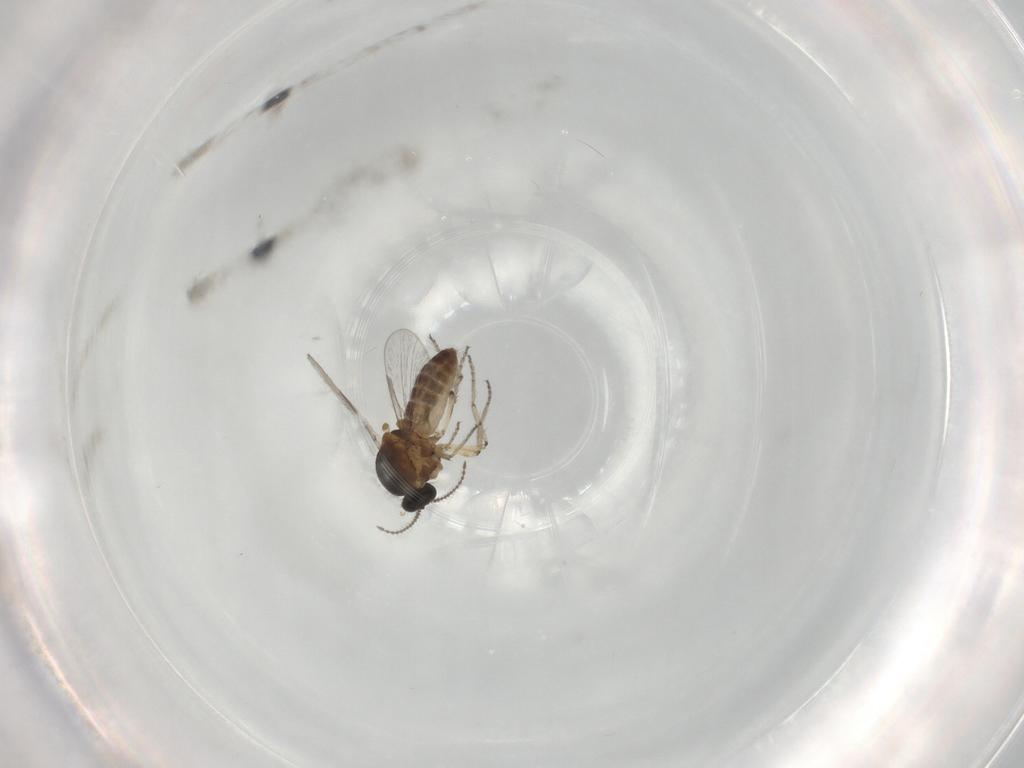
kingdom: Animalia
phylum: Arthropoda
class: Insecta
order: Diptera
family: Ceratopogonidae
